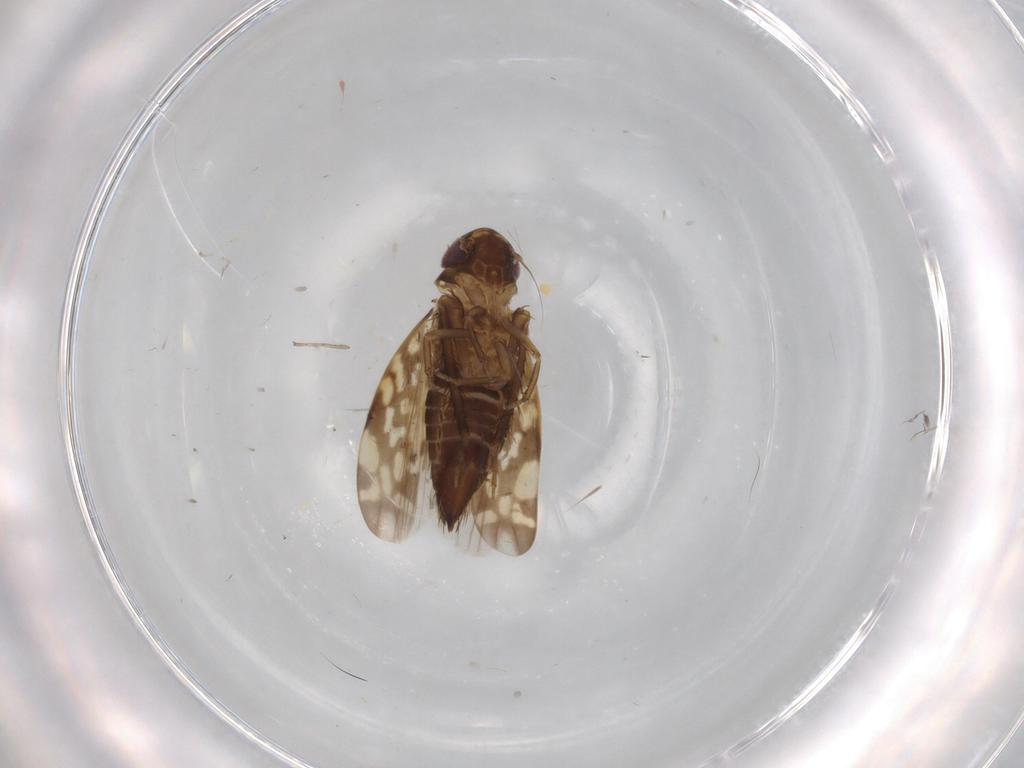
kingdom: Animalia
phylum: Arthropoda
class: Insecta
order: Hemiptera
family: Cicadellidae
